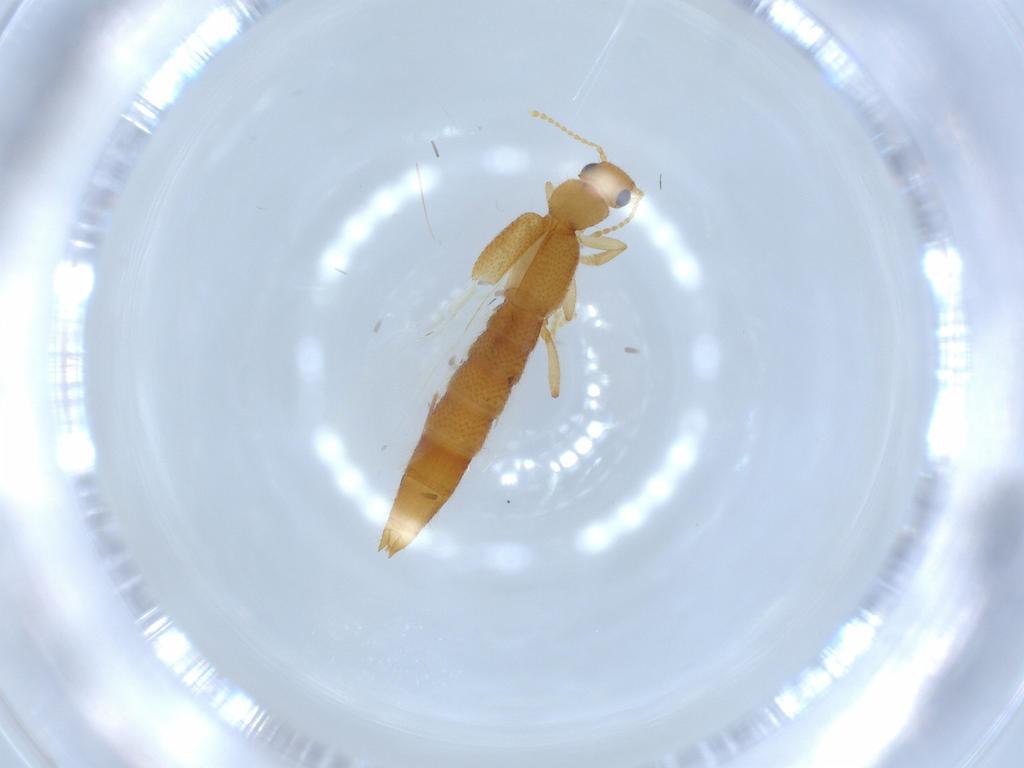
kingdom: Animalia
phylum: Arthropoda
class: Insecta
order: Coleoptera
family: Staphylinidae
